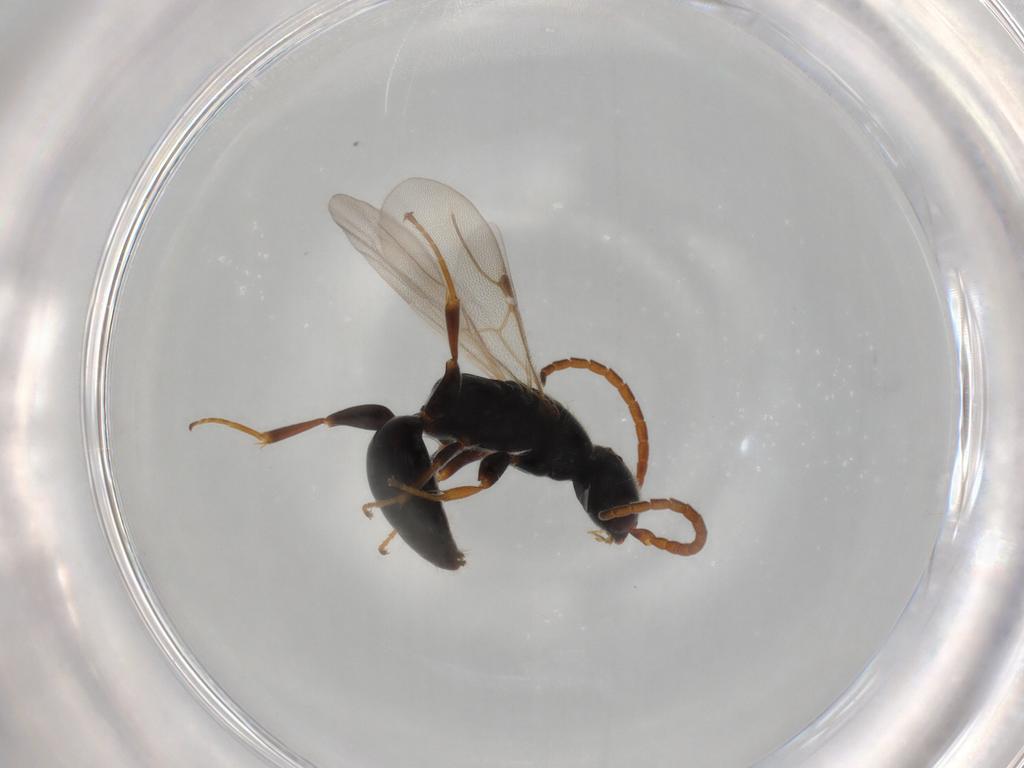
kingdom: Animalia
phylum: Arthropoda
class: Insecta
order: Hymenoptera
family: Bethylidae
